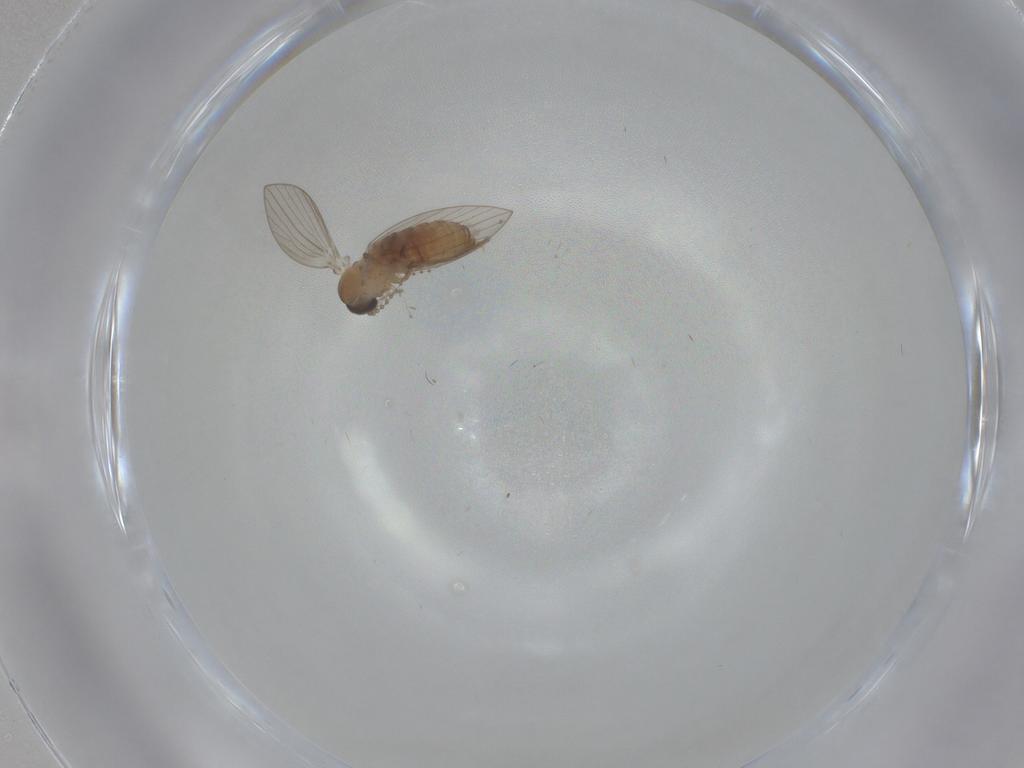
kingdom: Animalia
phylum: Arthropoda
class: Insecta
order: Diptera
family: Psychodidae
